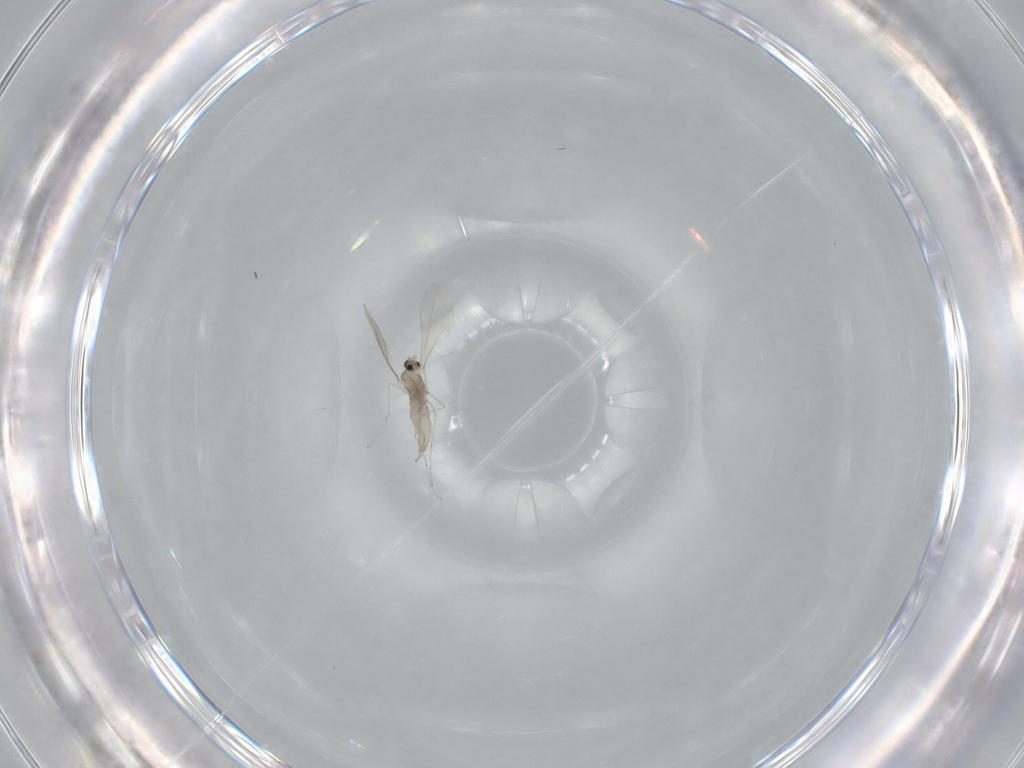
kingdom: Animalia
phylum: Arthropoda
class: Insecta
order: Diptera
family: Cecidomyiidae
